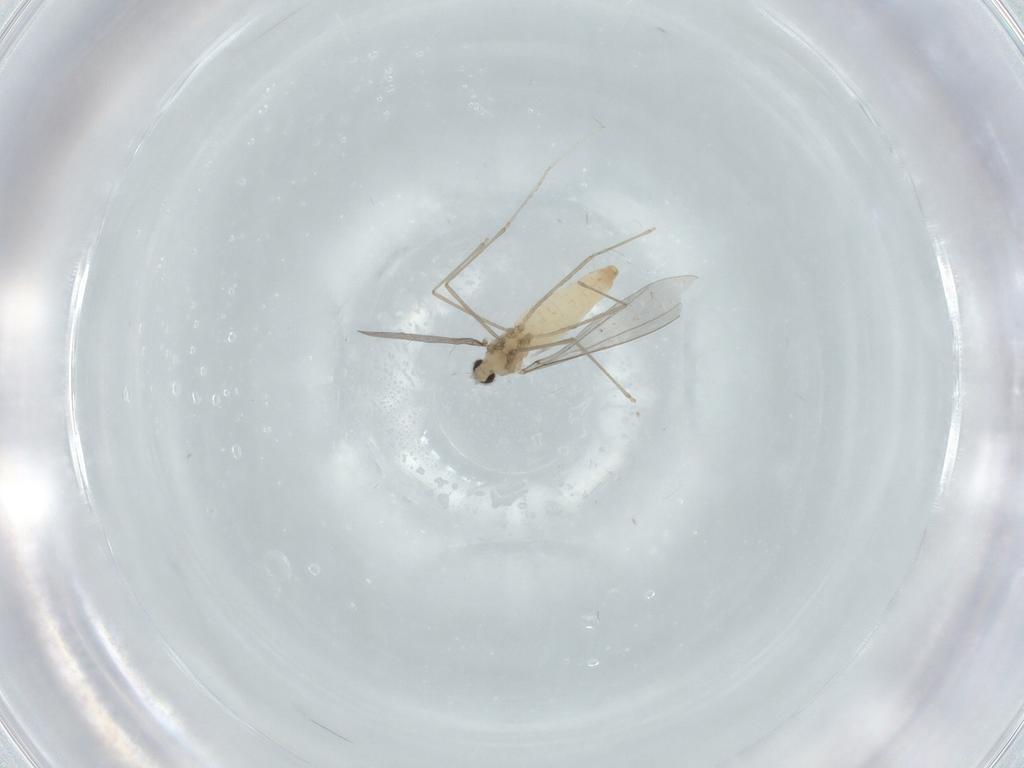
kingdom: Animalia
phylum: Arthropoda
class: Insecta
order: Diptera
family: Cecidomyiidae
